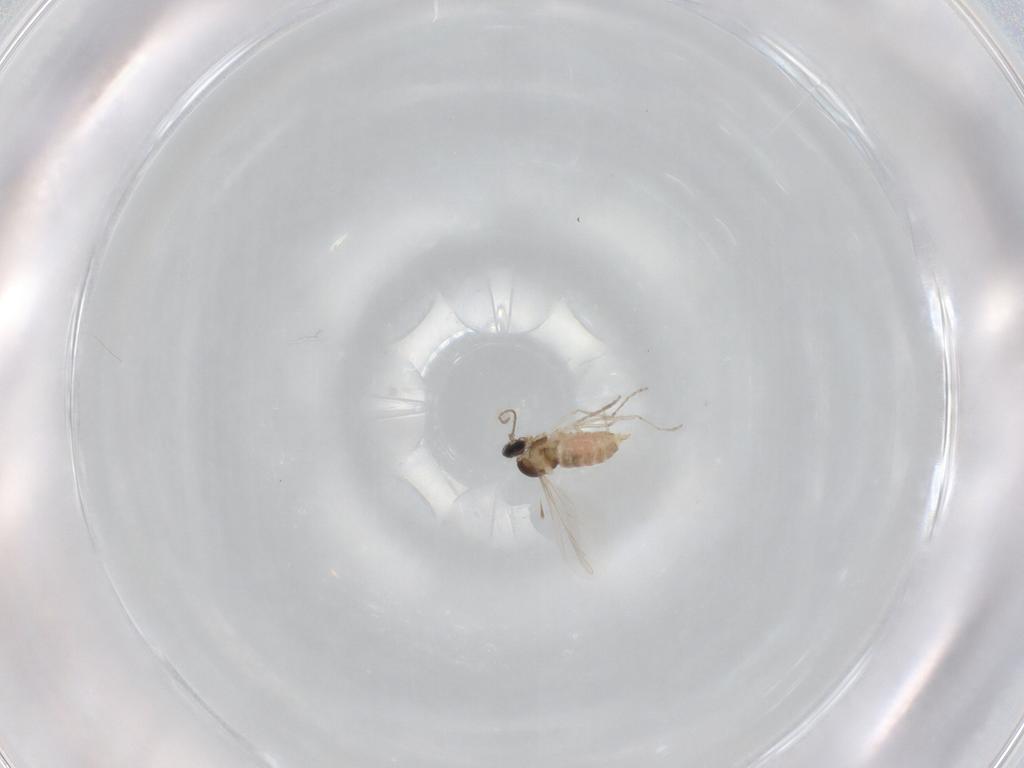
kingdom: Animalia
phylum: Arthropoda
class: Insecta
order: Diptera
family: Cecidomyiidae
